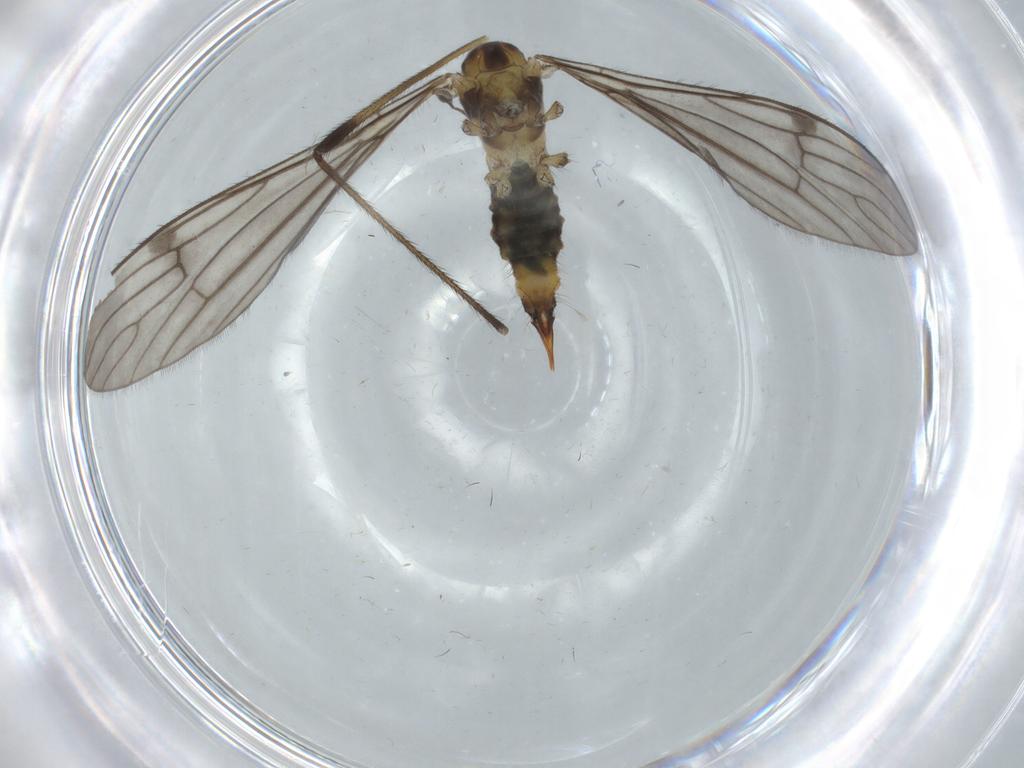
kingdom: Animalia
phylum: Arthropoda
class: Insecta
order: Diptera
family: Limoniidae
